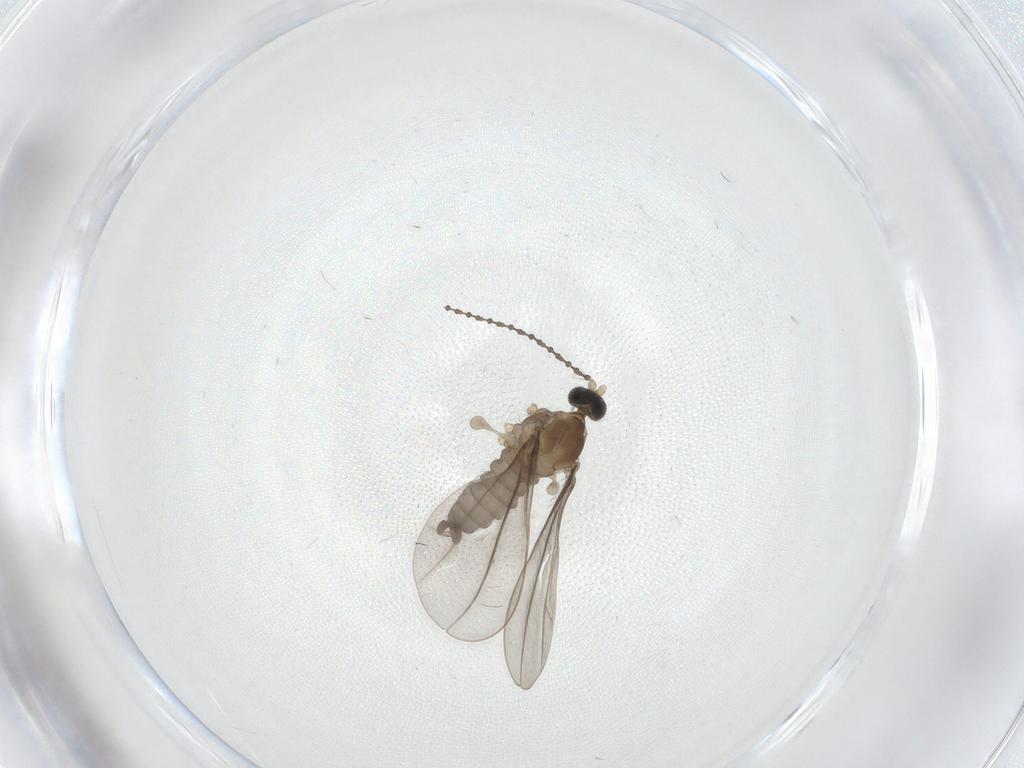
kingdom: Animalia
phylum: Arthropoda
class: Insecta
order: Diptera
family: Cecidomyiidae
